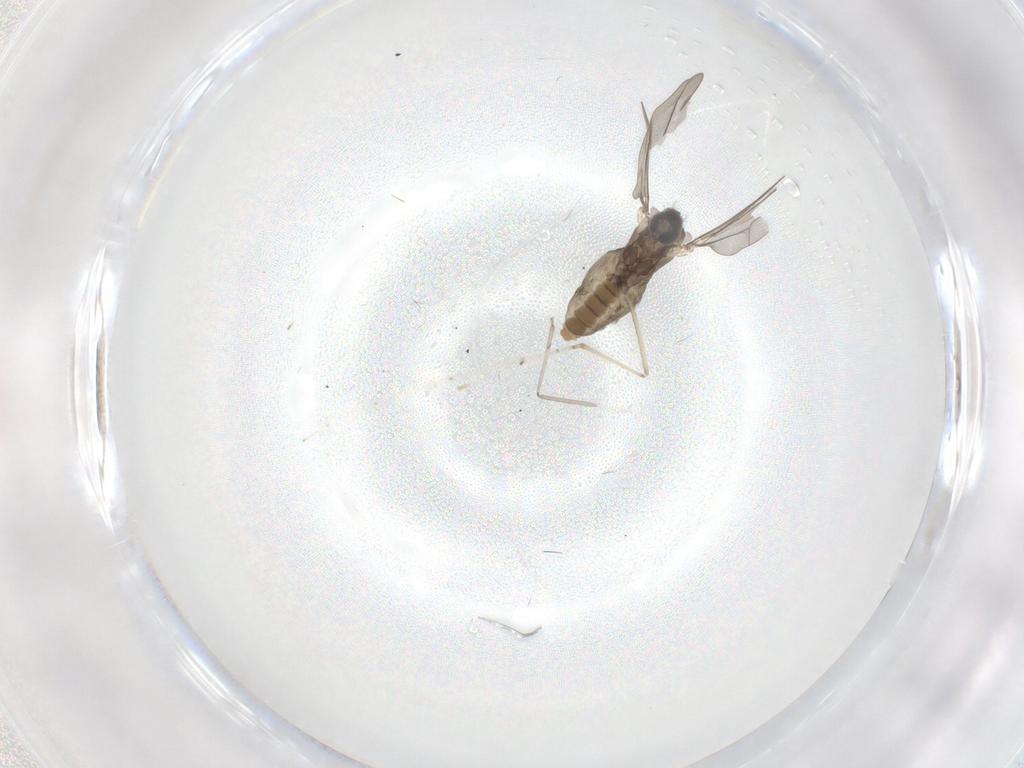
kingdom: Animalia
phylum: Arthropoda
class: Insecta
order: Diptera
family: Cecidomyiidae
